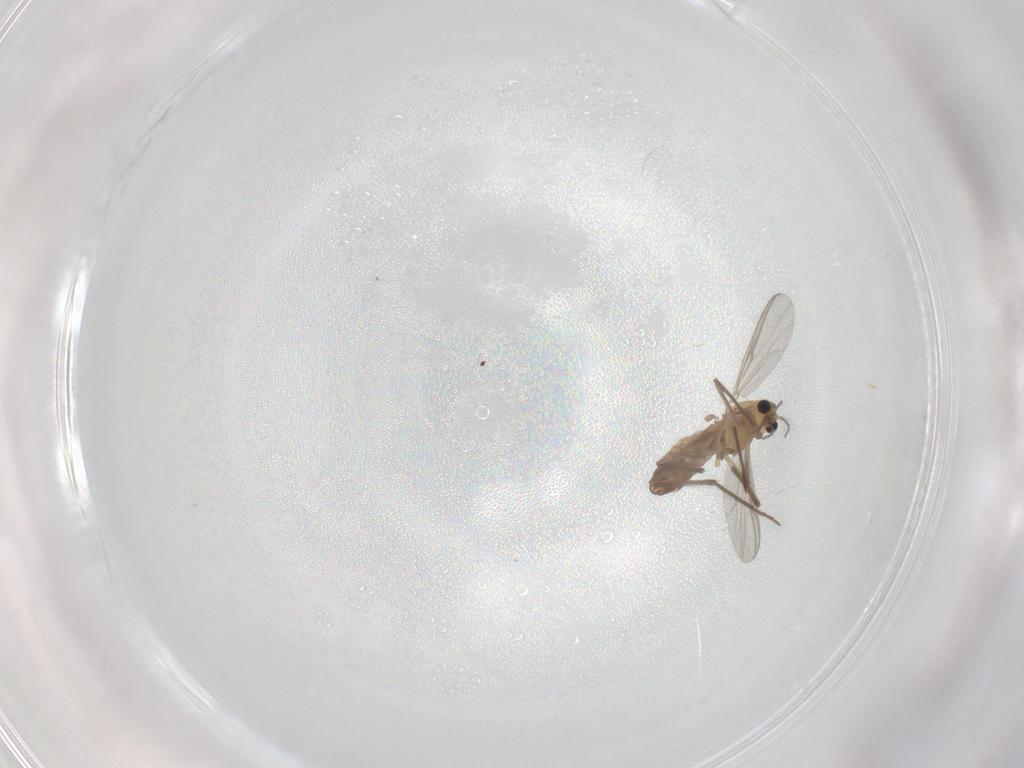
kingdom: Animalia
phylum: Arthropoda
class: Insecta
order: Diptera
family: Chironomidae
